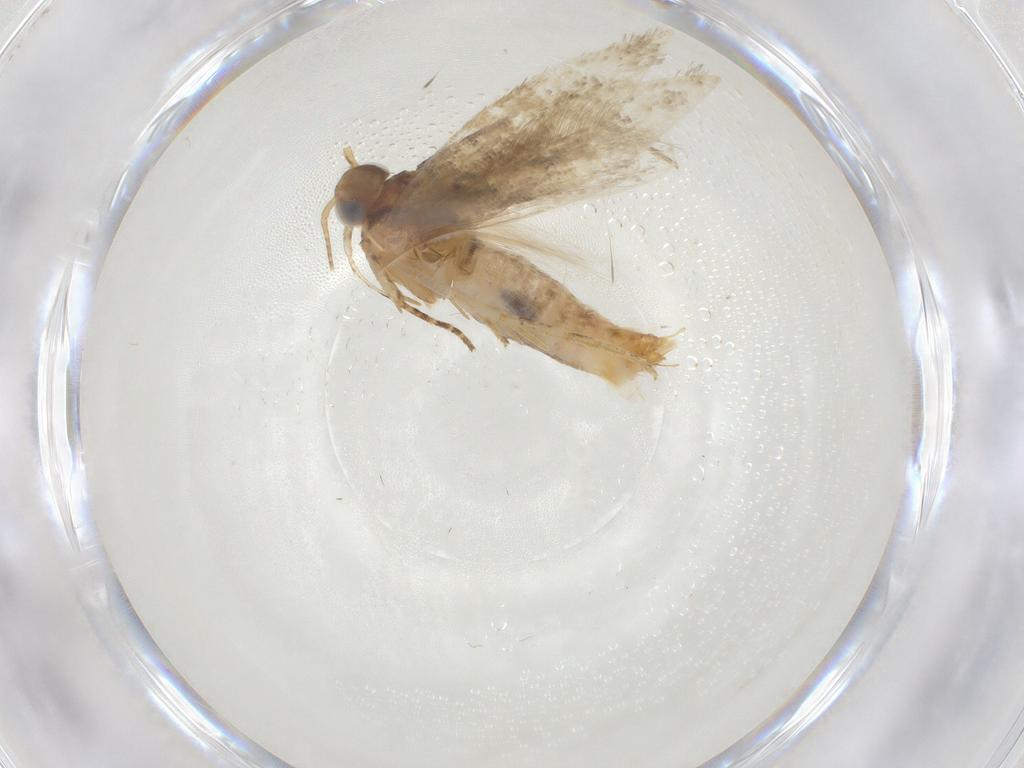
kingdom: Animalia
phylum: Arthropoda
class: Insecta
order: Lepidoptera
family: Gelechiidae
